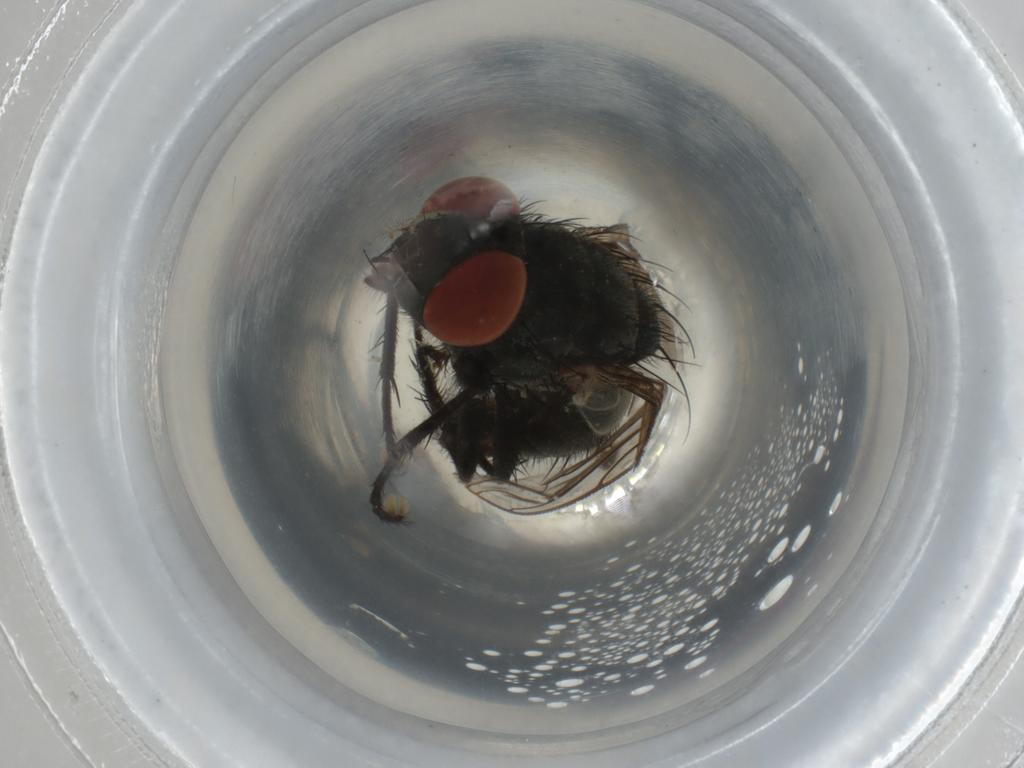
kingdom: Animalia
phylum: Arthropoda
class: Insecta
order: Diptera
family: Sarcophagidae
